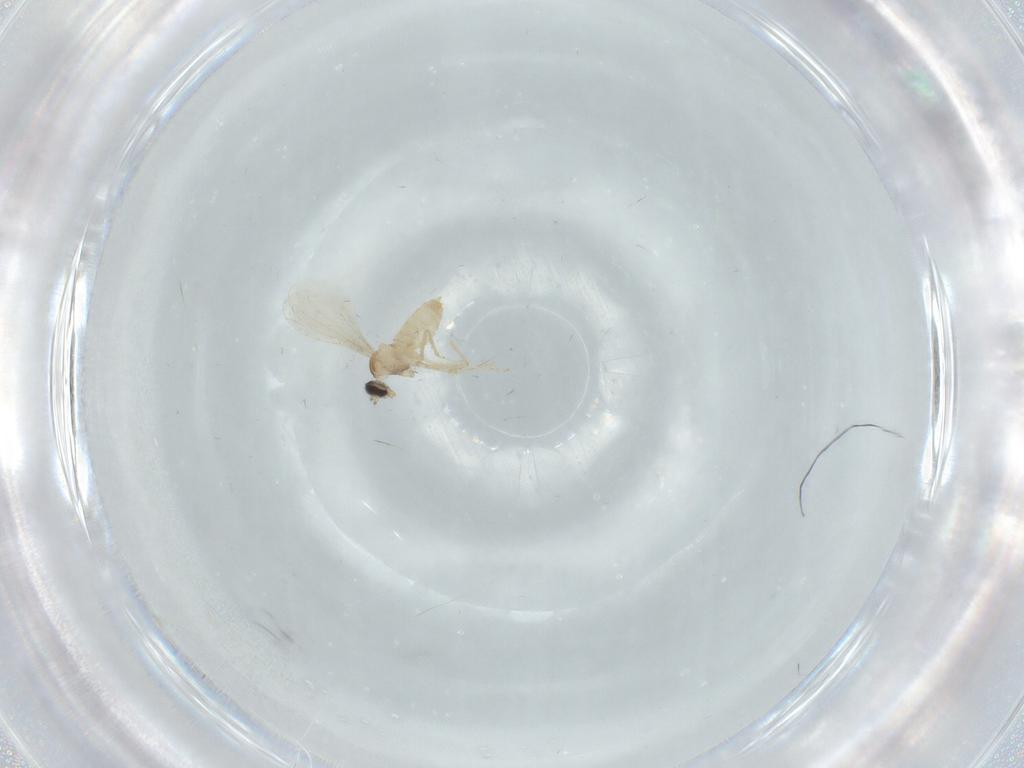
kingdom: Animalia
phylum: Arthropoda
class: Insecta
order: Diptera
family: Cecidomyiidae
